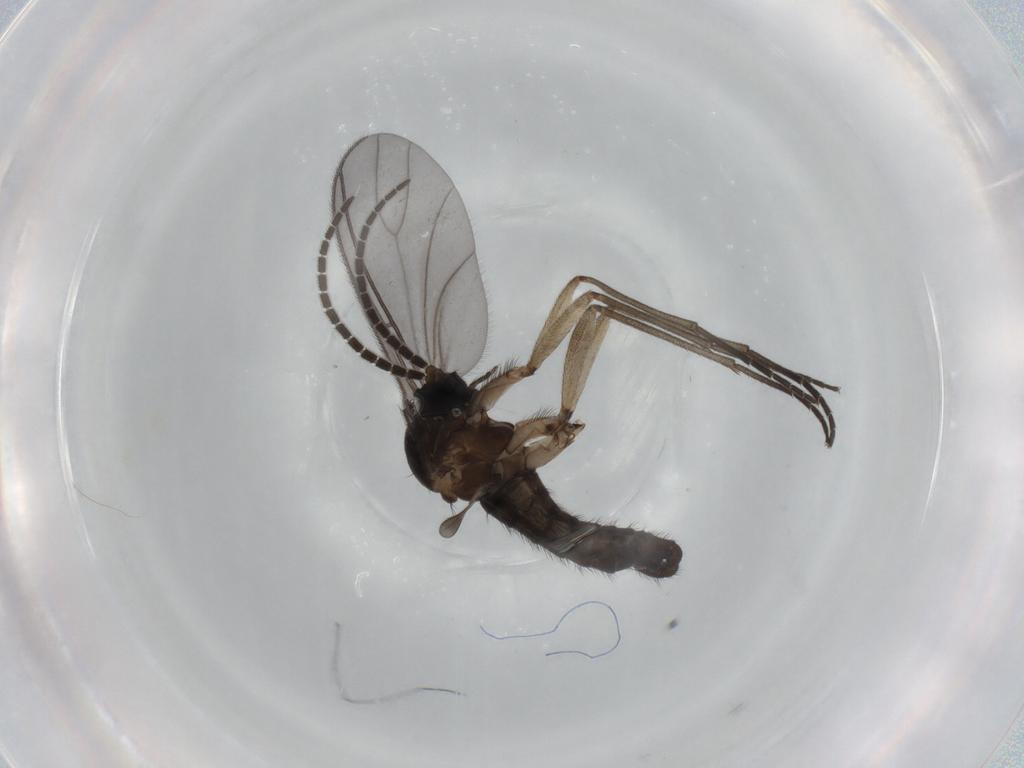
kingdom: Animalia
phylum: Arthropoda
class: Insecta
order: Diptera
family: Sciaridae
